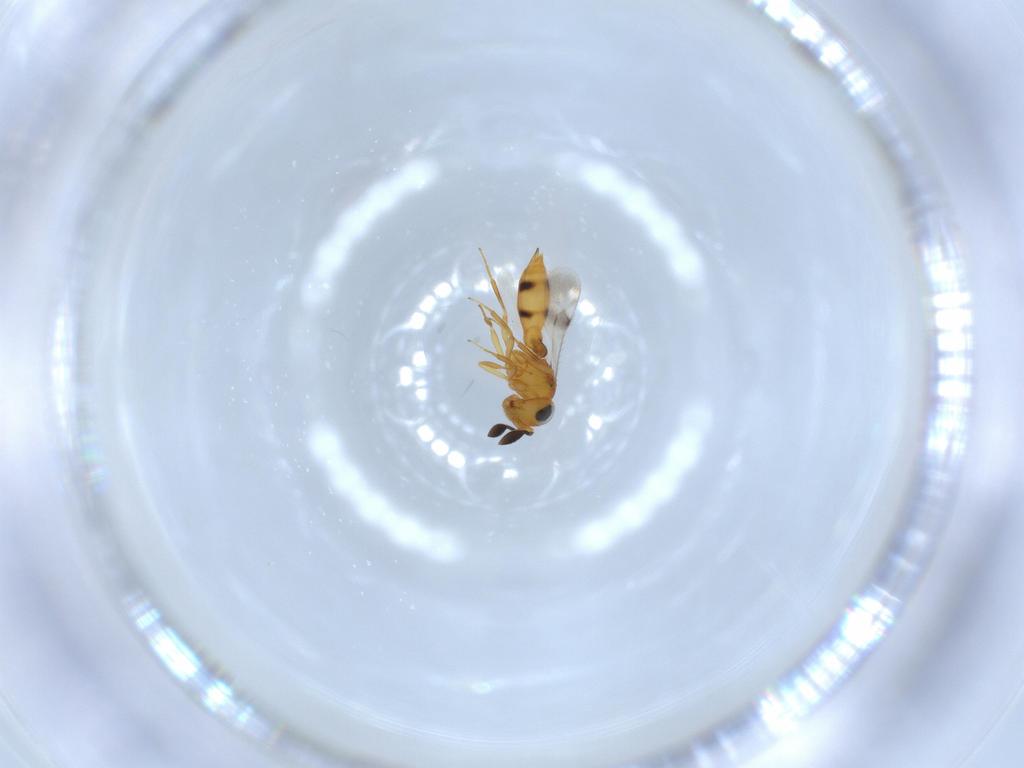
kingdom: Animalia
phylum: Arthropoda
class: Insecta
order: Hymenoptera
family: Scelionidae
